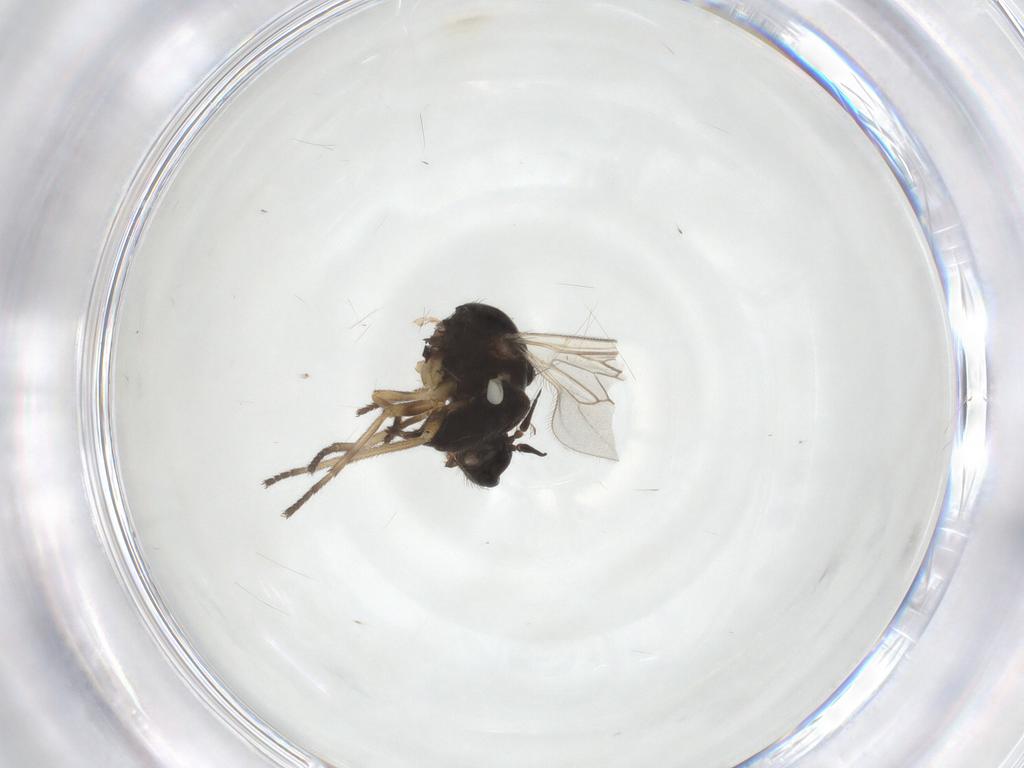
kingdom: Animalia
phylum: Arthropoda
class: Insecta
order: Diptera
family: Empididae
